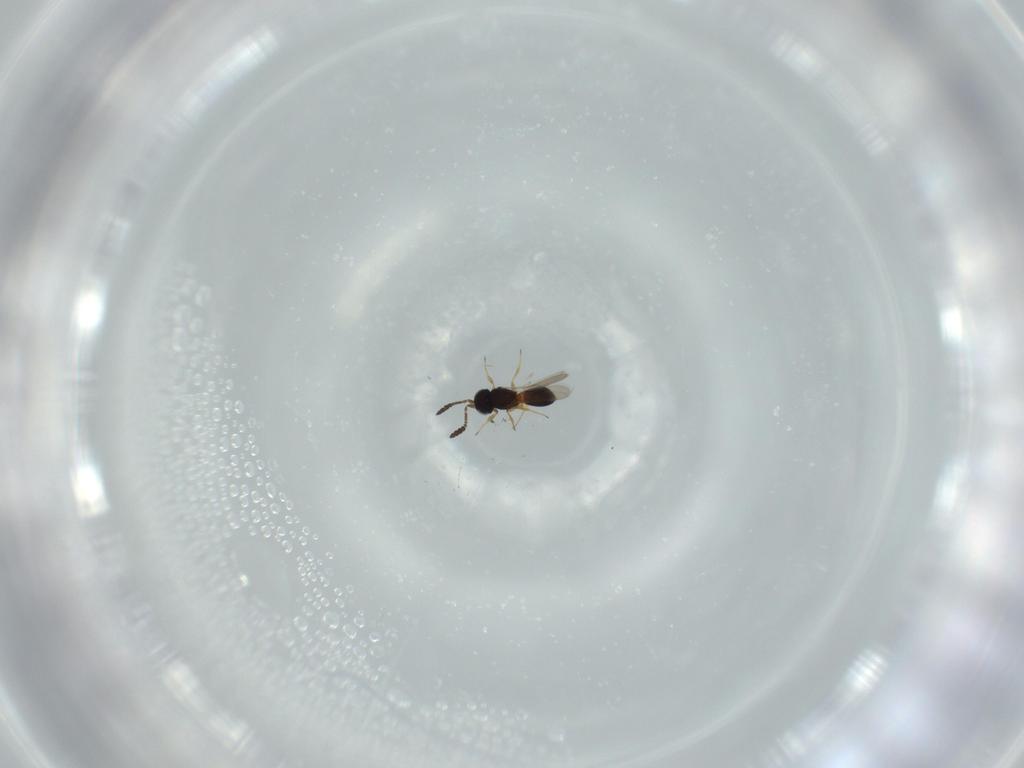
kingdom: Animalia
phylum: Arthropoda
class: Insecta
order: Hymenoptera
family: Scelionidae
